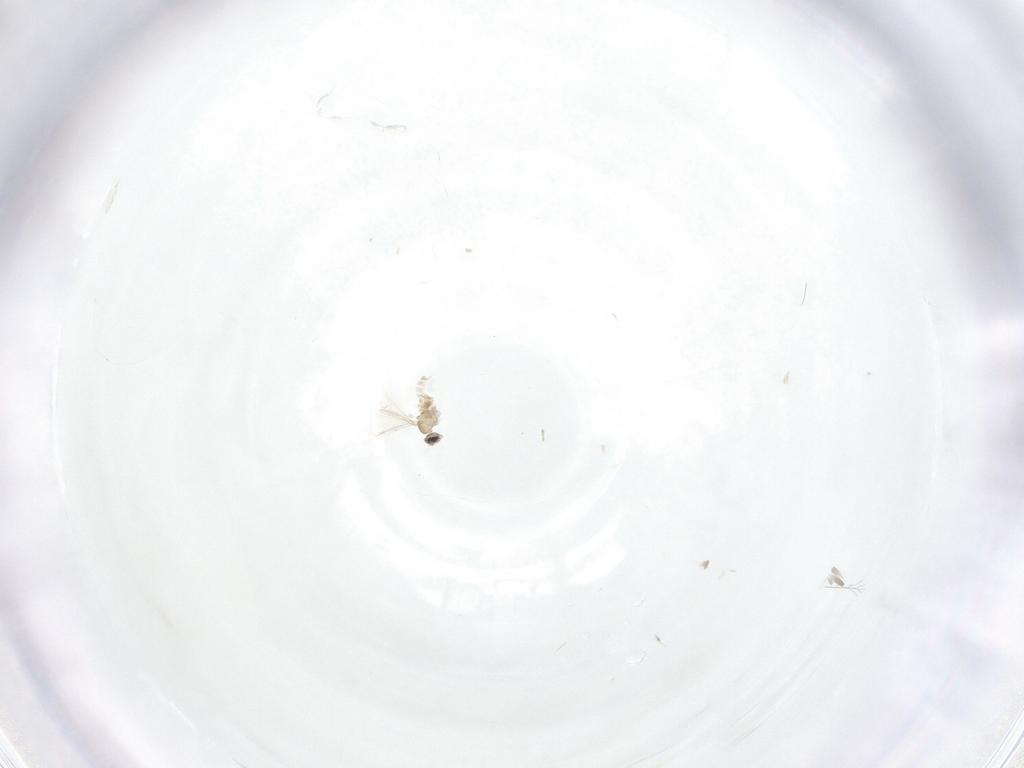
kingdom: Animalia
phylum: Arthropoda
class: Insecta
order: Diptera
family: Cecidomyiidae
